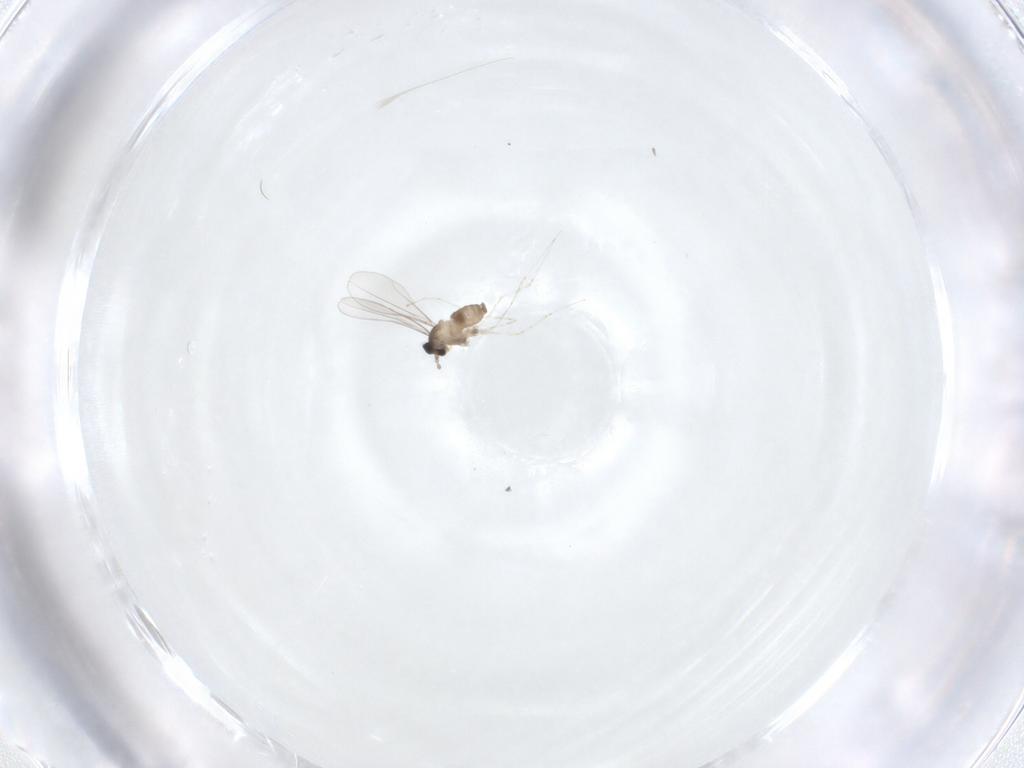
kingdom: Animalia
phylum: Arthropoda
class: Insecta
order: Diptera
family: Cecidomyiidae
